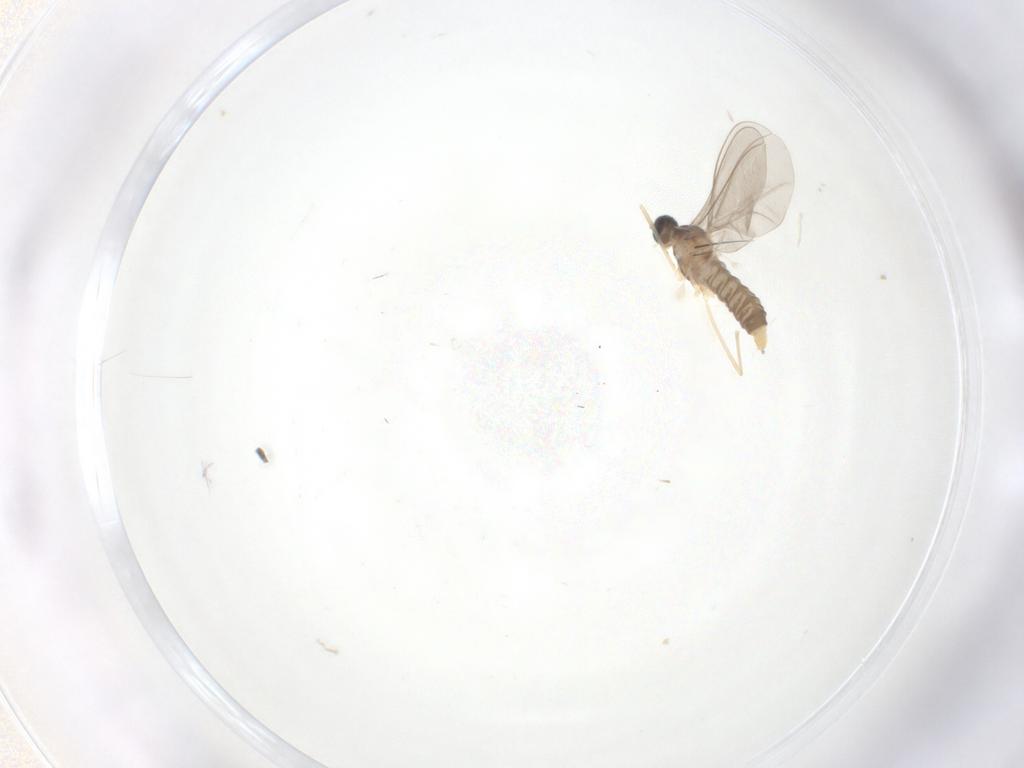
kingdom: Animalia
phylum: Arthropoda
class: Insecta
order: Diptera
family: Cecidomyiidae
